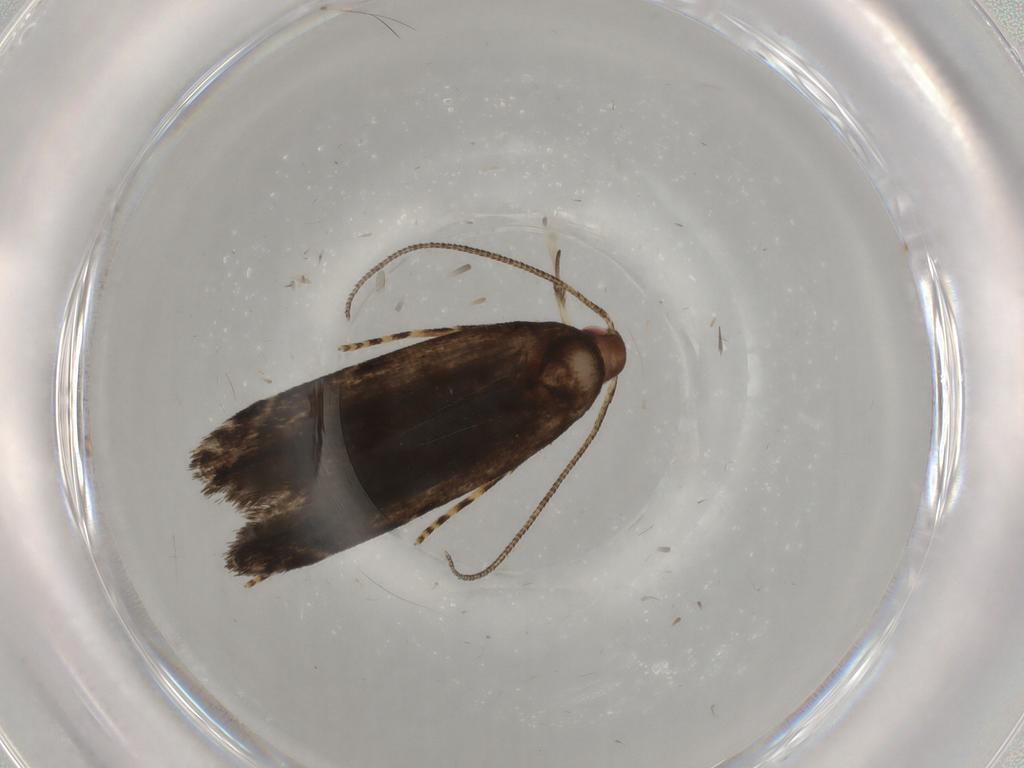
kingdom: Animalia
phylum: Arthropoda
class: Insecta
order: Lepidoptera
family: Gelechiidae
